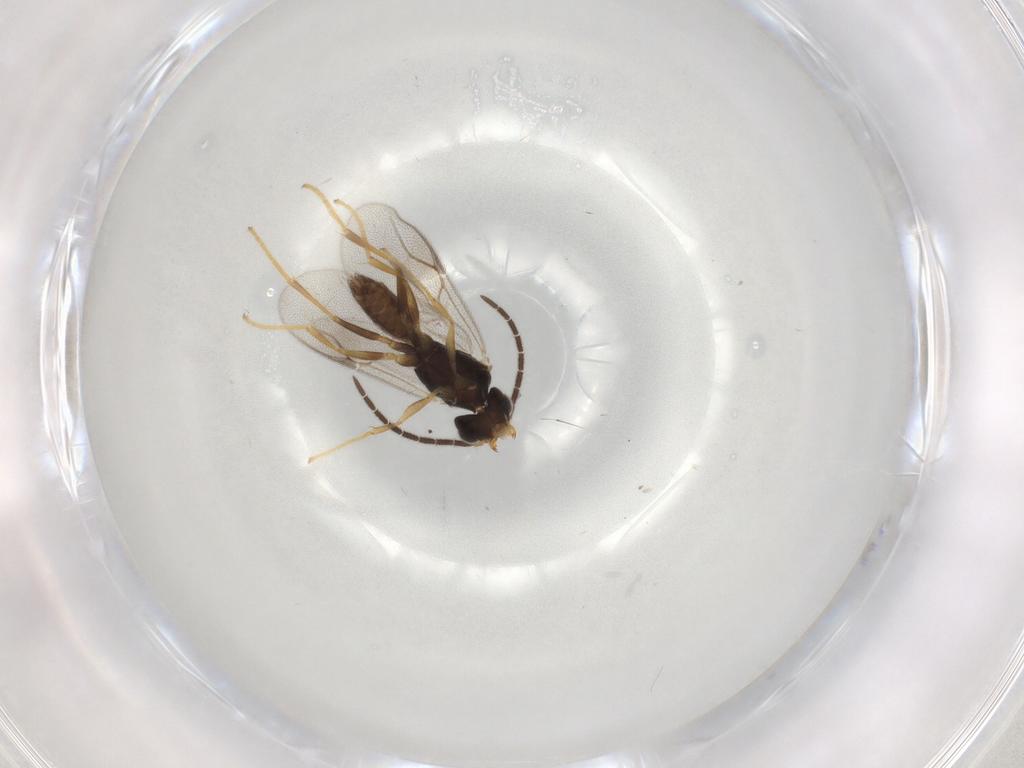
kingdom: Animalia
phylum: Arthropoda
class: Insecta
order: Hymenoptera
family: Dryinidae
